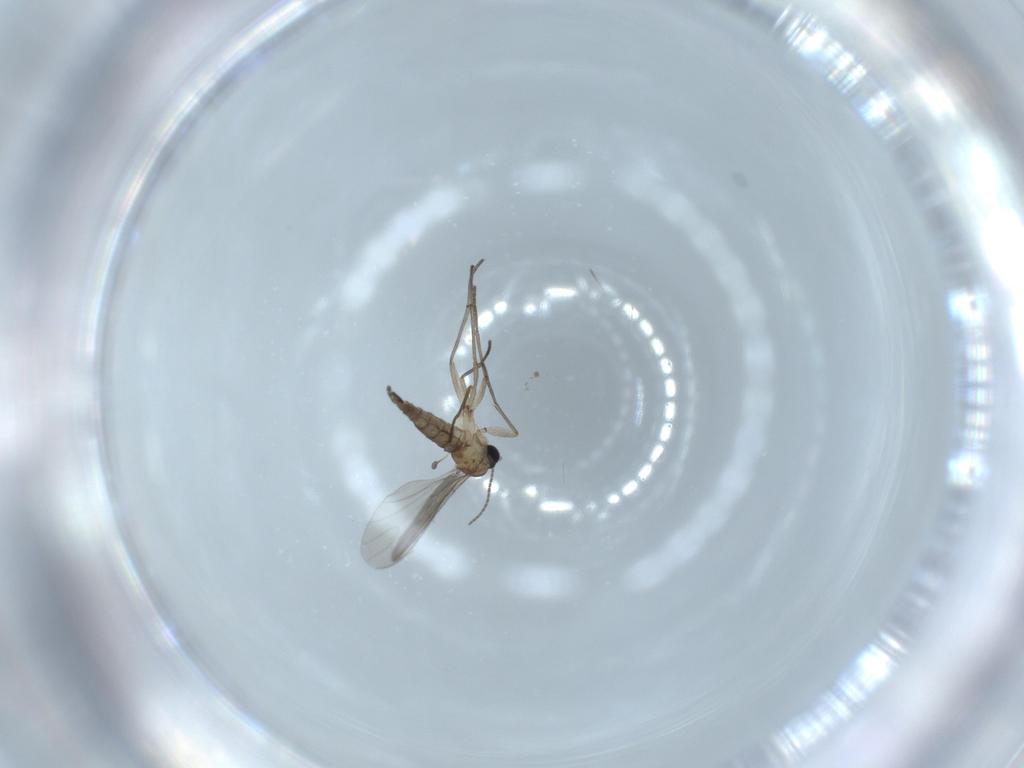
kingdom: Animalia
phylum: Arthropoda
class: Insecta
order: Diptera
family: Sciaridae
